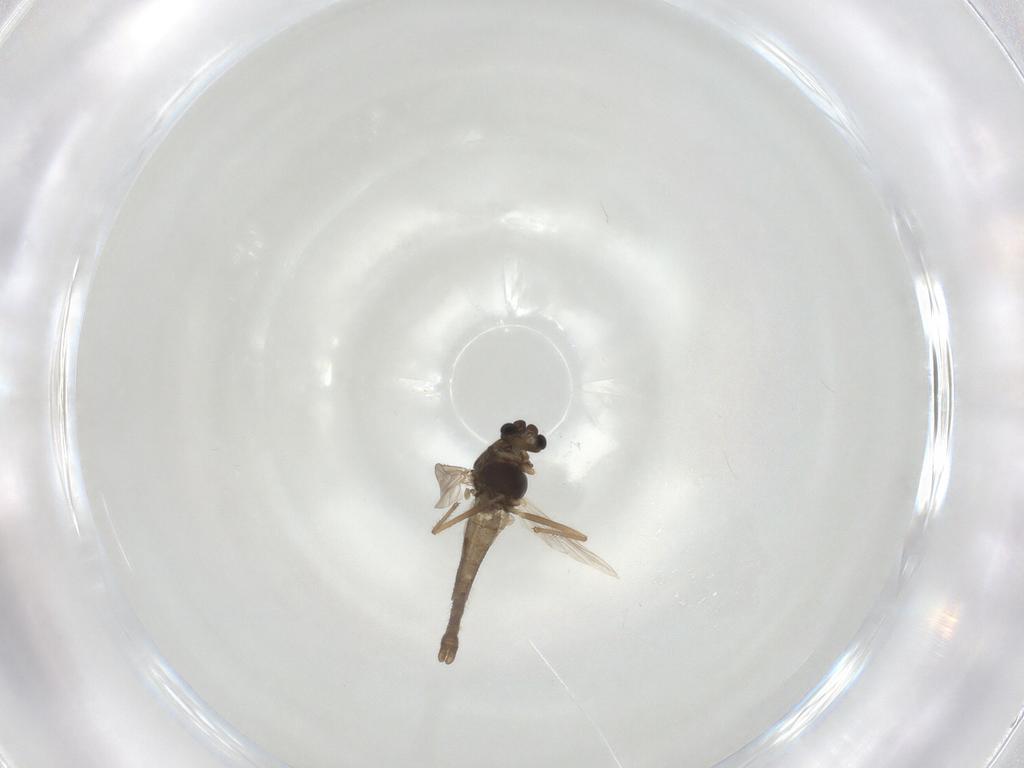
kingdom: Animalia
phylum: Arthropoda
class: Insecta
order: Diptera
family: Chironomidae
